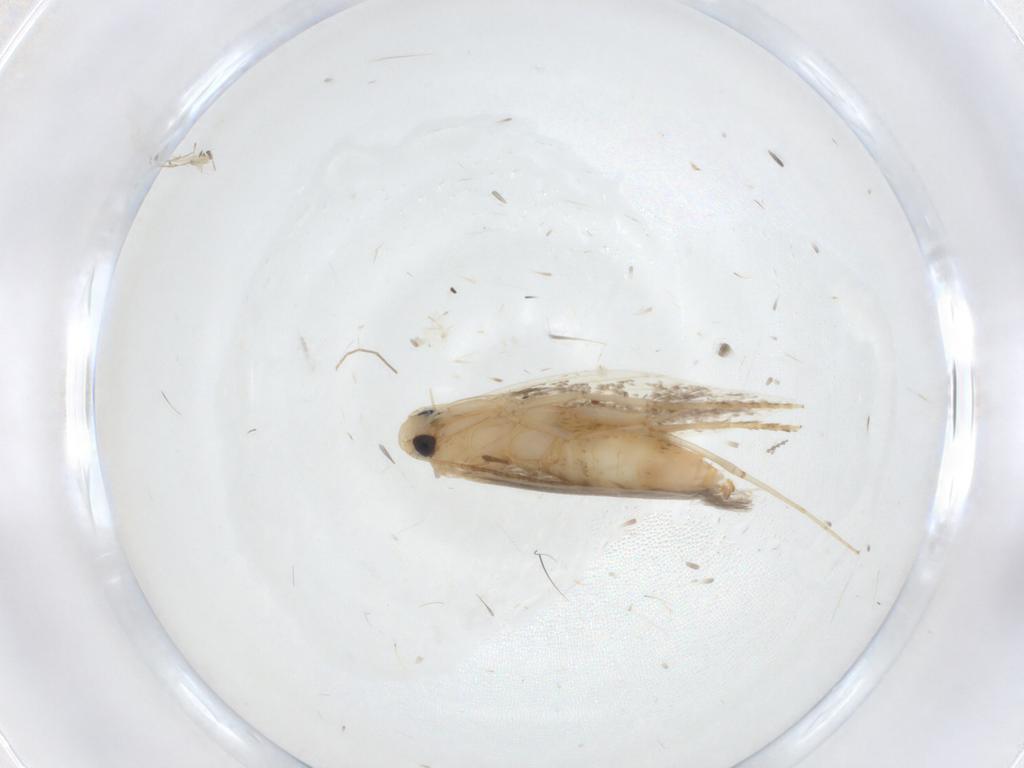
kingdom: Animalia
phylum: Arthropoda
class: Insecta
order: Lepidoptera
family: Tischeriidae
